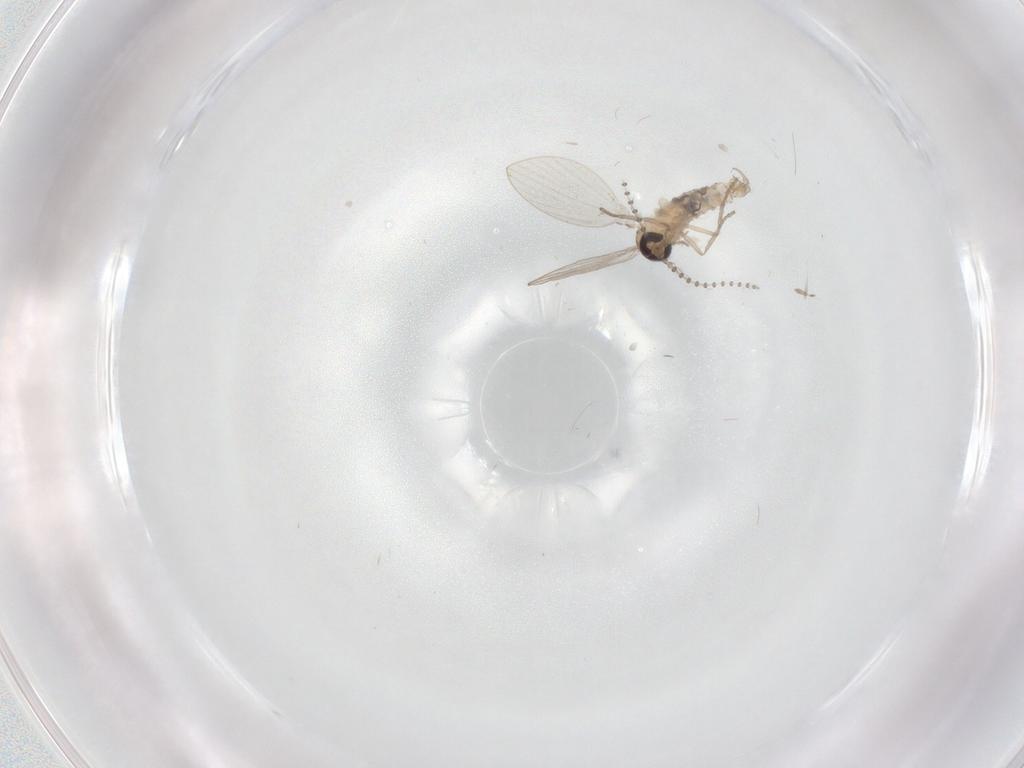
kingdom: Animalia
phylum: Arthropoda
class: Insecta
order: Diptera
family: Psychodidae
